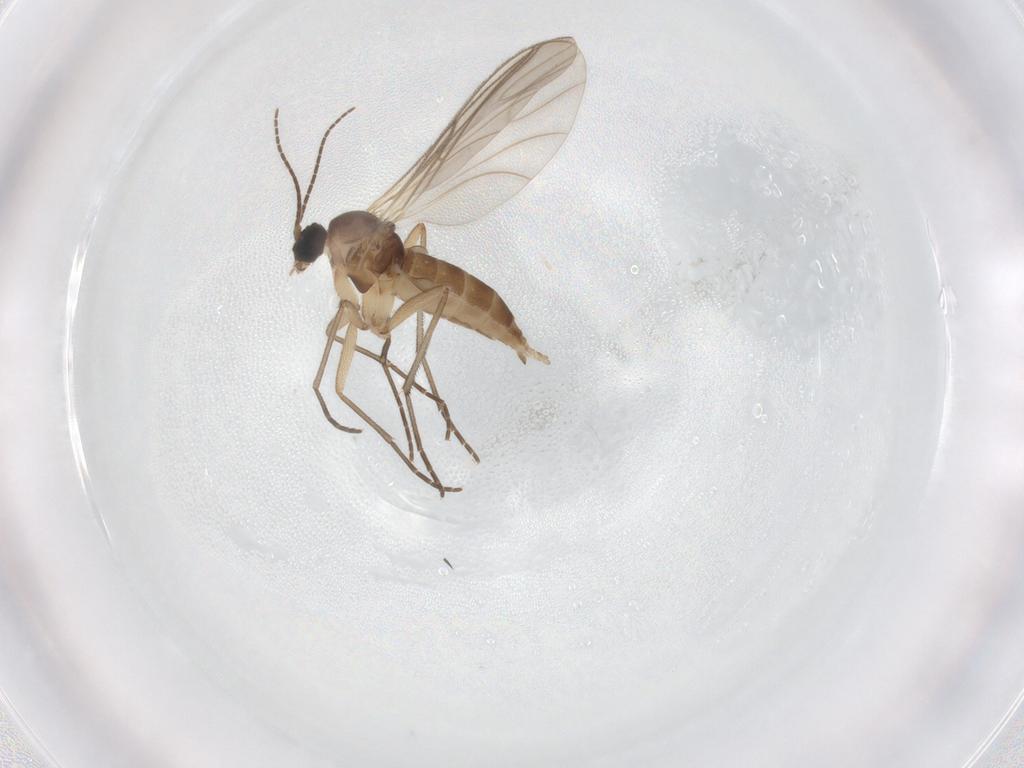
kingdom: Animalia
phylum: Arthropoda
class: Insecta
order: Diptera
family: Sciaridae
